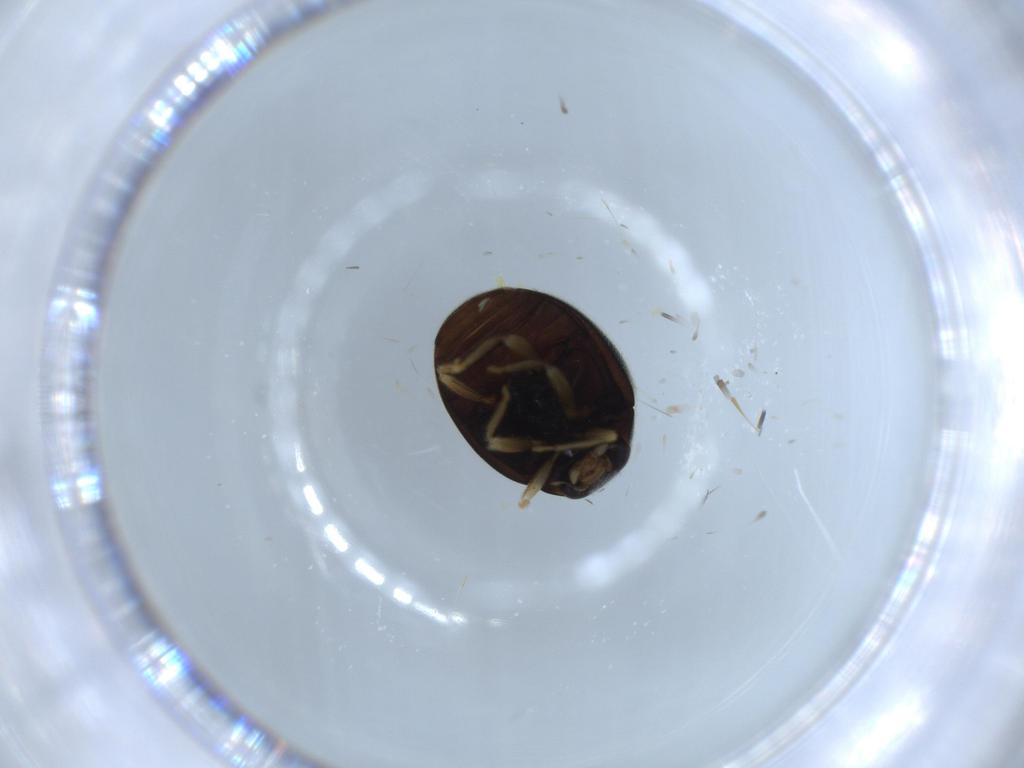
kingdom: Animalia
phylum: Arthropoda
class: Insecta
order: Coleoptera
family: Coccinellidae
